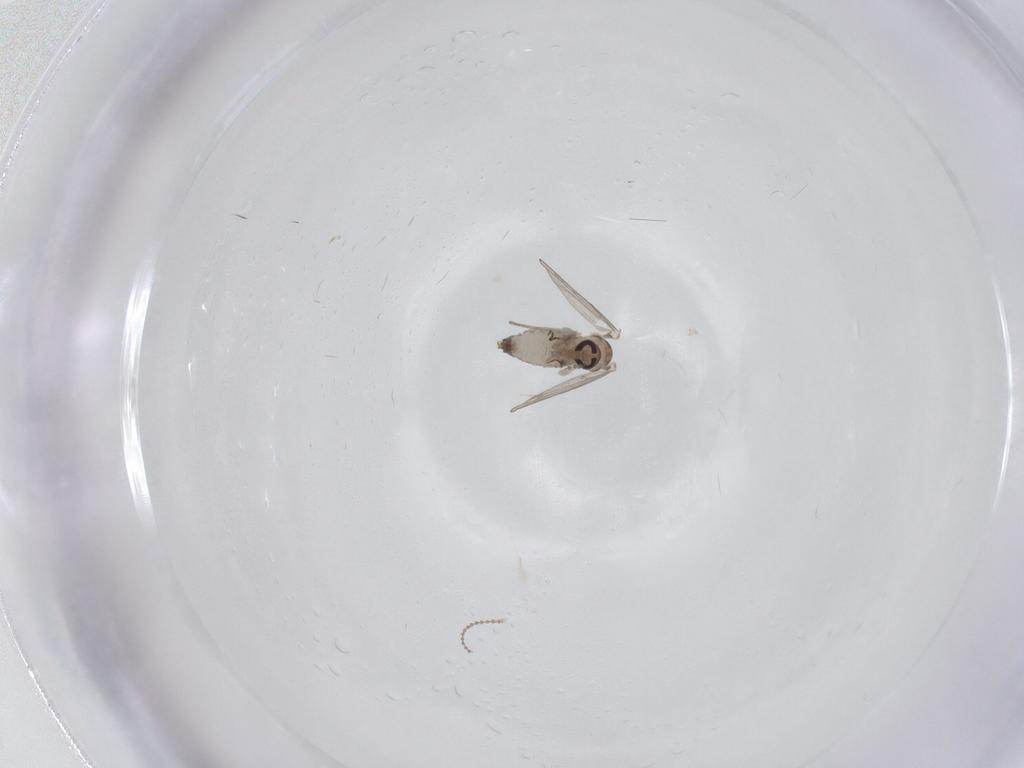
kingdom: Animalia
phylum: Arthropoda
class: Insecta
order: Diptera
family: Psychodidae
